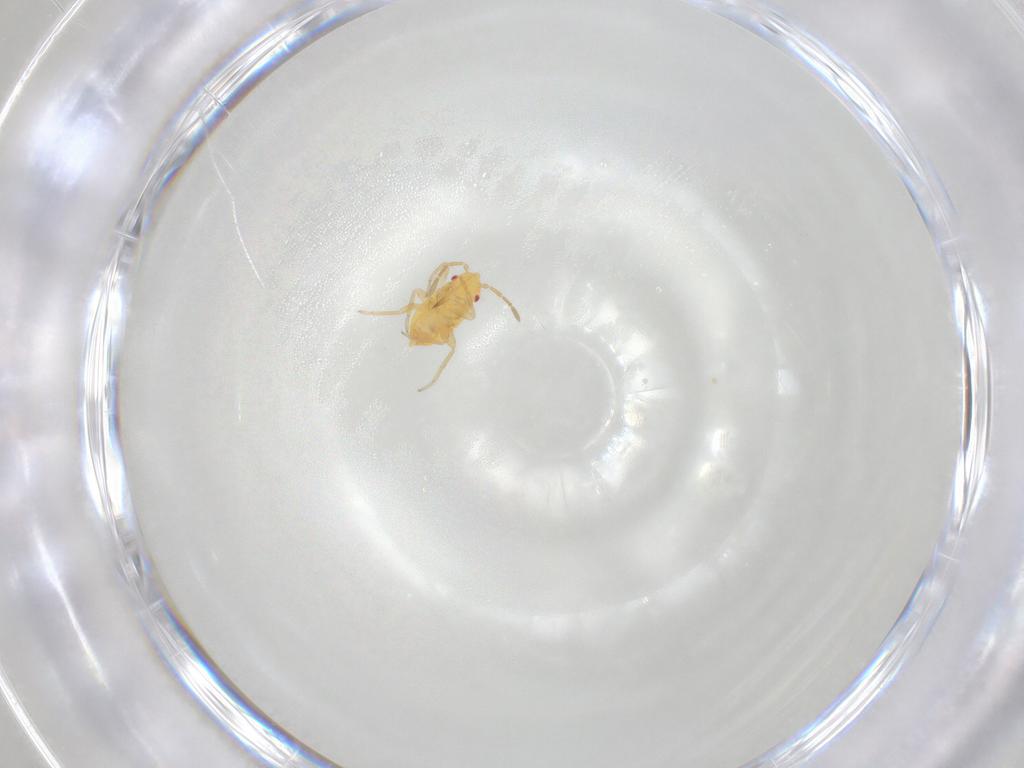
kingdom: Animalia
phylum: Arthropoda
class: Insecta
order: Hemiptera
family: Miridae
